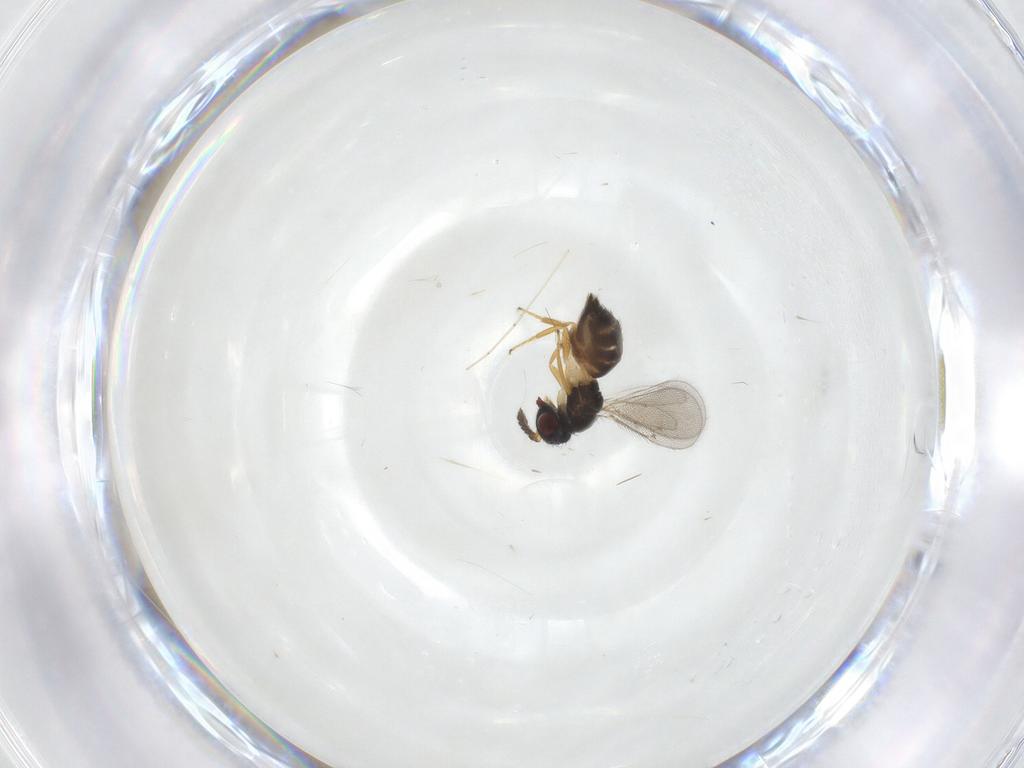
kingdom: Animalia
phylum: Arthropoda
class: Insecta
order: Hymenoptera
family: Eulophidae
